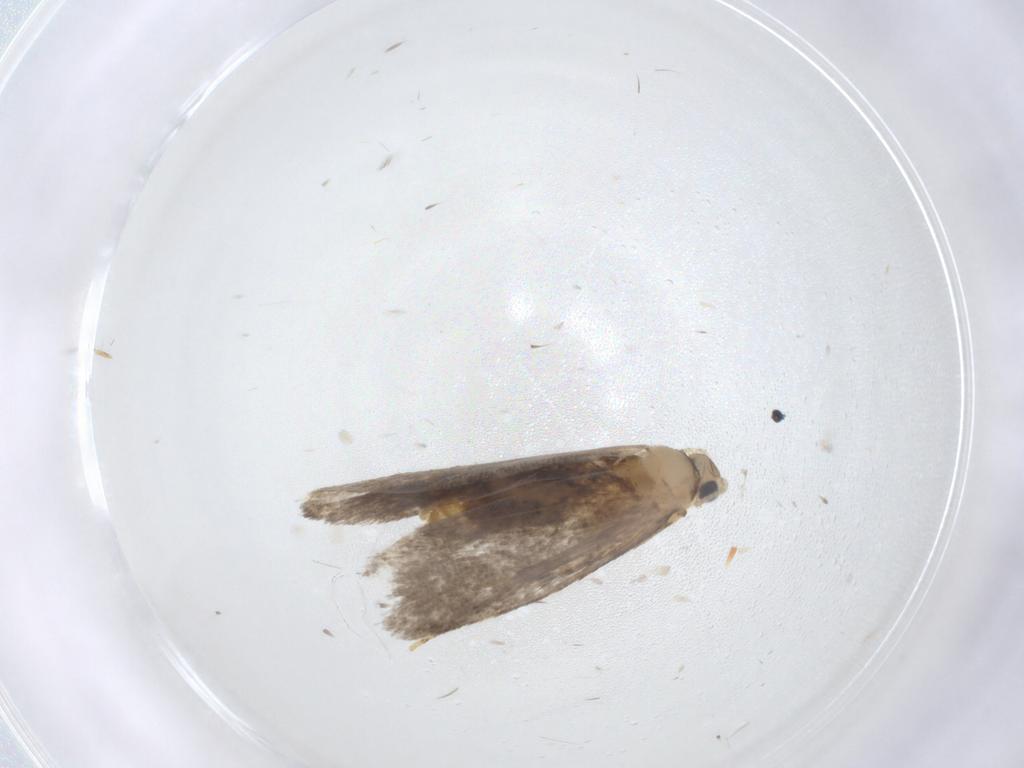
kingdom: Animalia
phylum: Arthropoda
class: Insecta
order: Lepidoptera
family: Dryadaulidae
